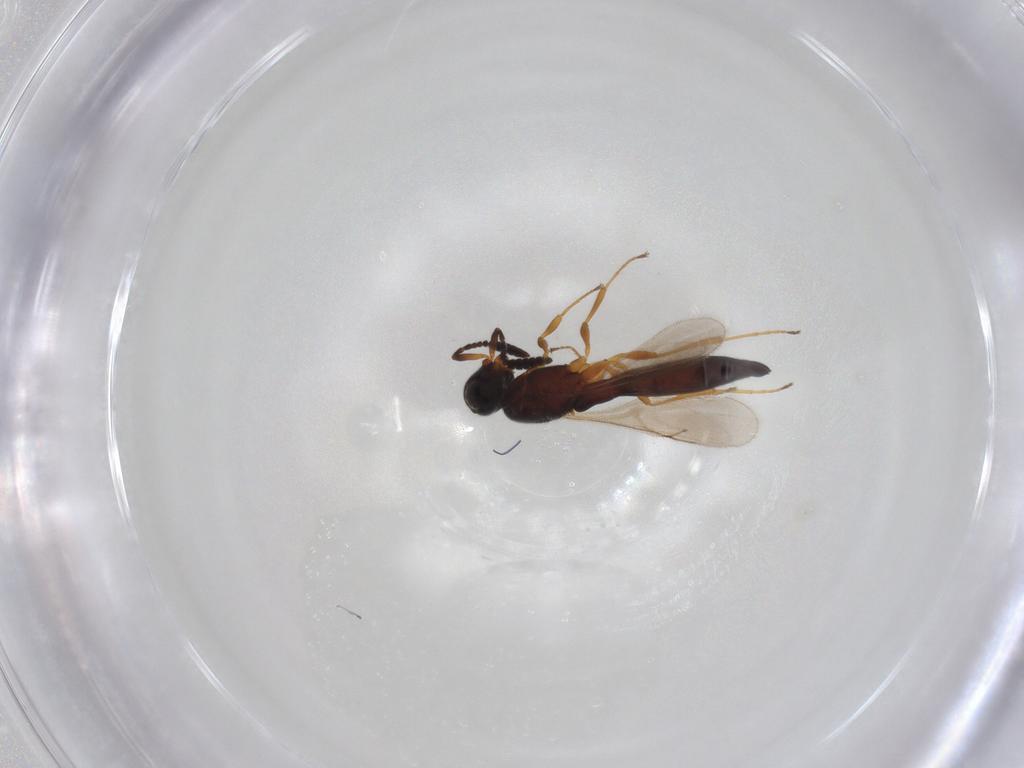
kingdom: Animalia
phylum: Arthropoda
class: Insecta
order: Hymenoptera
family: Scelionidae
